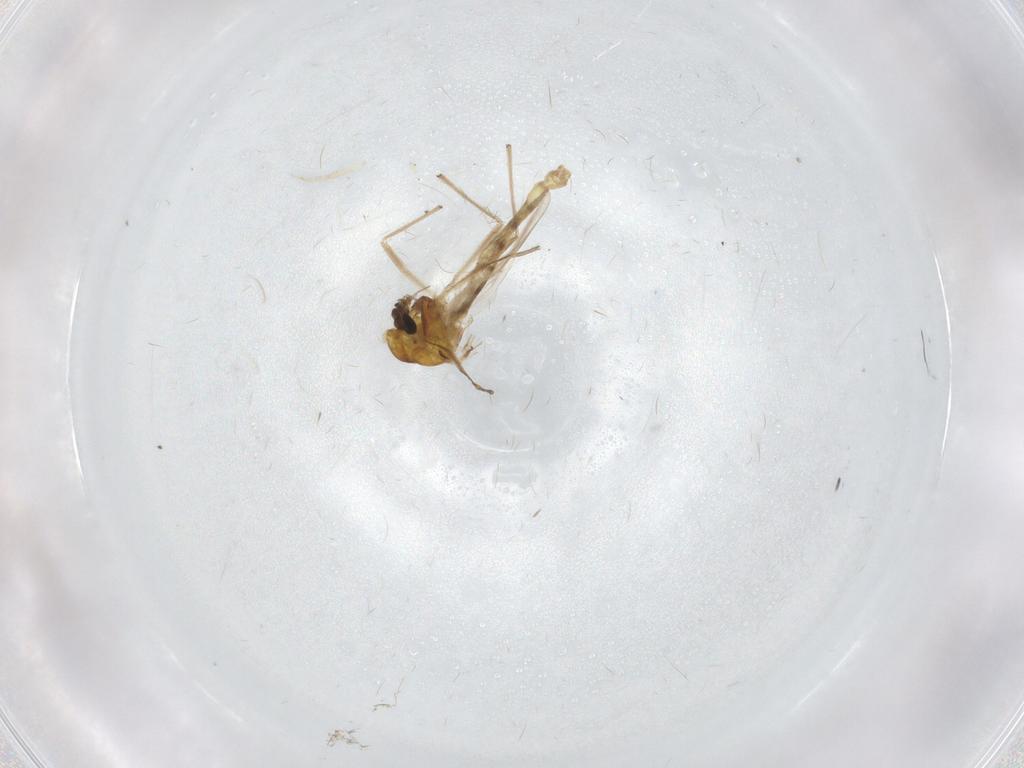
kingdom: Animalia
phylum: Arthropoda
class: Insecta
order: Diptera
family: Chironomidae
